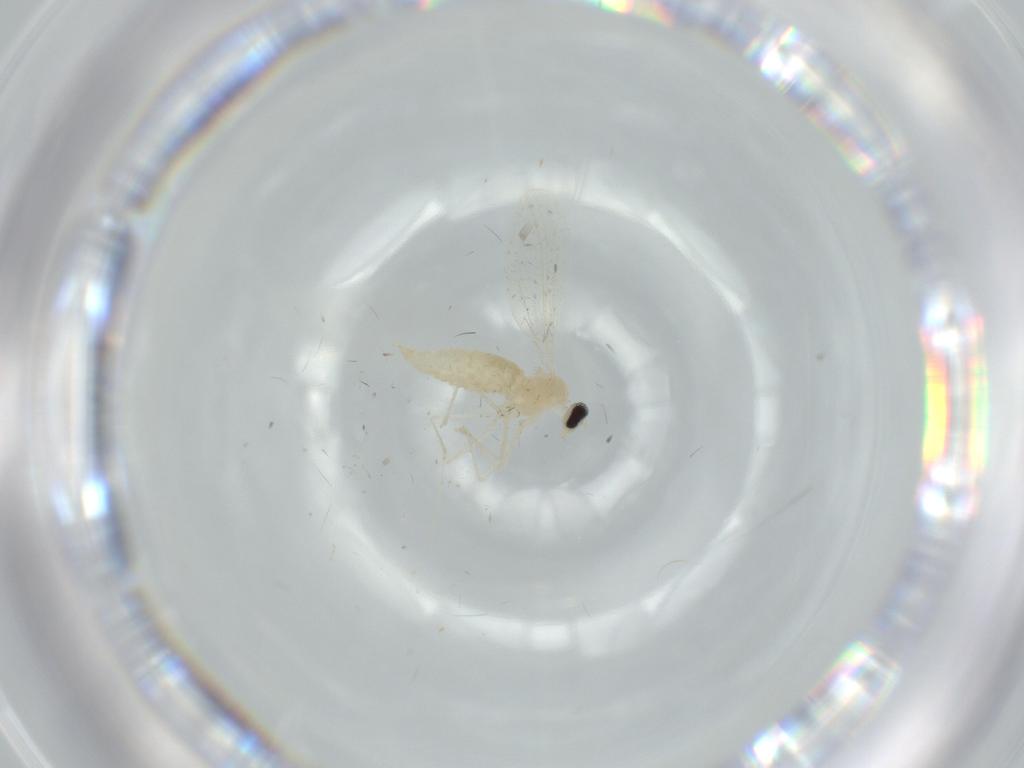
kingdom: Animalia
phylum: Arthropoda
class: Insecta
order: Diptera
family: Cecidomyiidae
